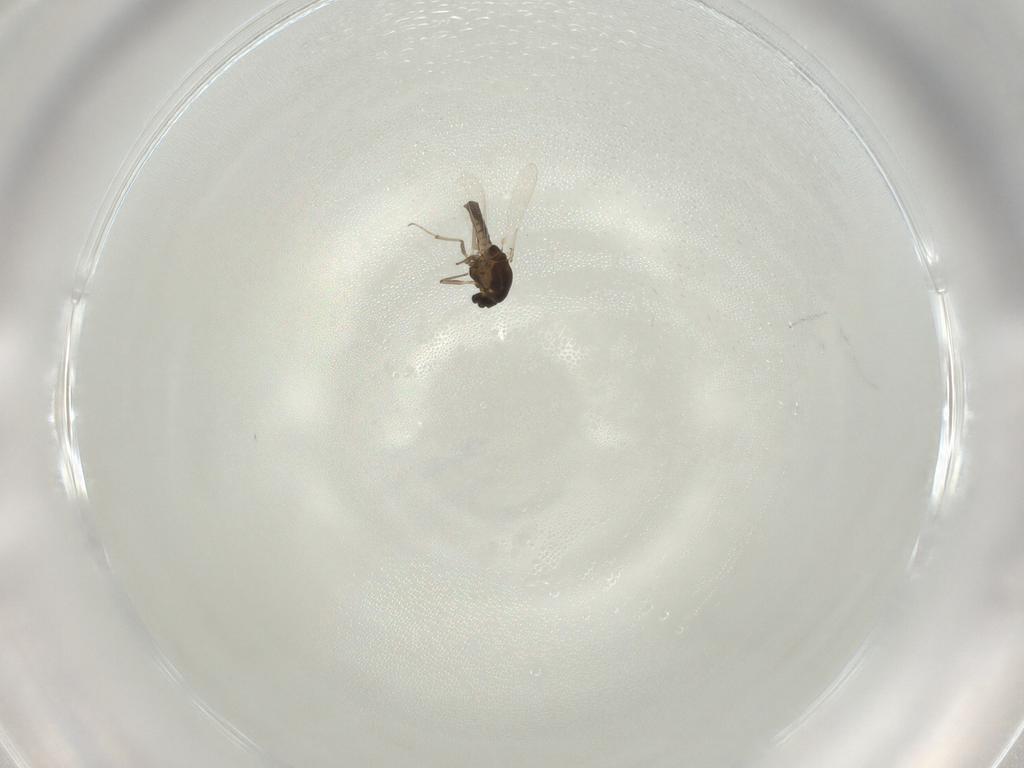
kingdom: Animalia
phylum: Arthropoda
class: Insecta
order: Diptera
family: Chironomidae
